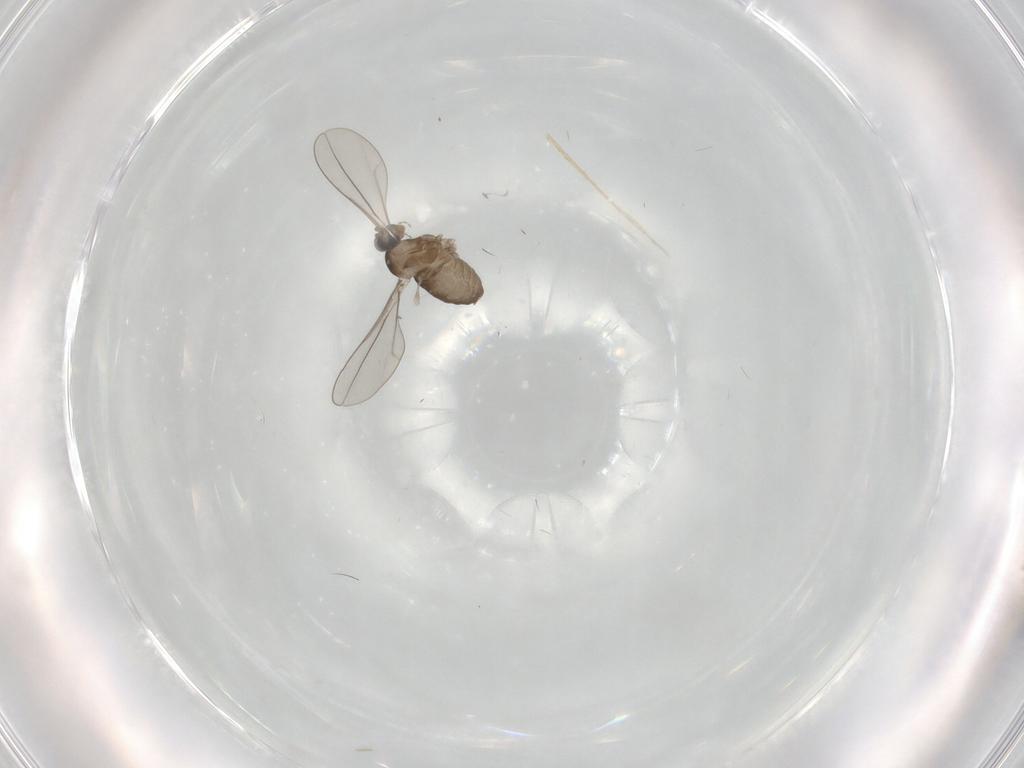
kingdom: Animalia
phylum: Arthropoda
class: Insecta
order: Diptera
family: Cecidomyiidae
